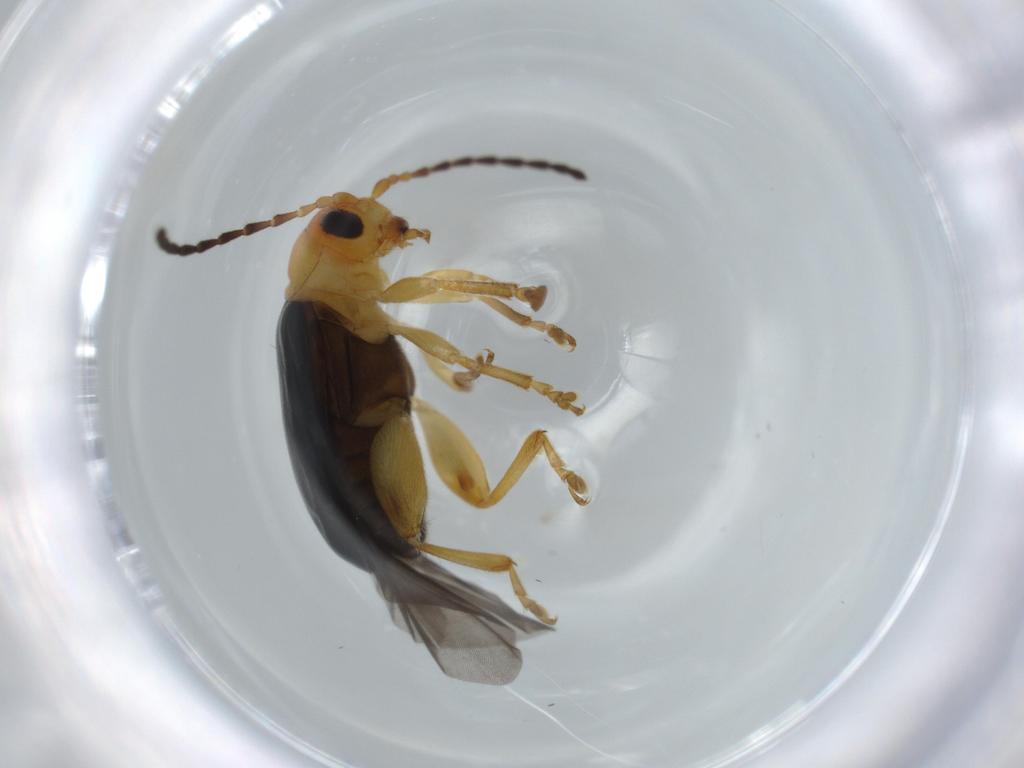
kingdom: Animalia
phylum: Arthropoda
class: Insecta
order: Coleoptera
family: Chrysomelidae
